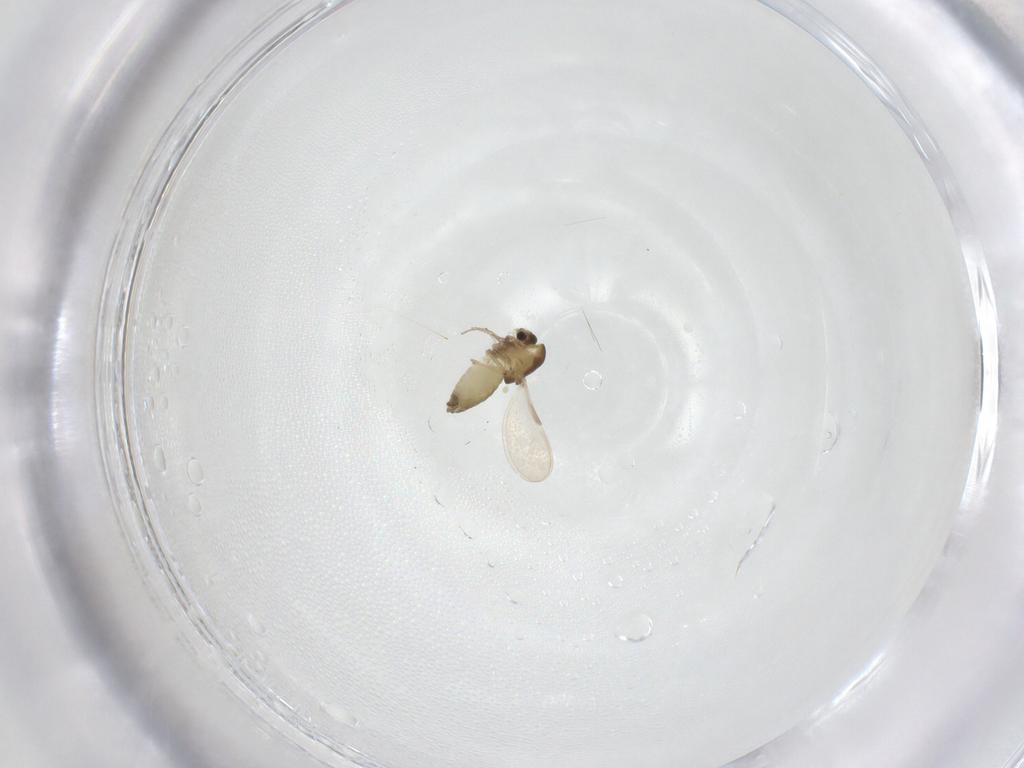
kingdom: Animalia
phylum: Arthropoda
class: Insecta
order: Diptera
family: Chironomidae
